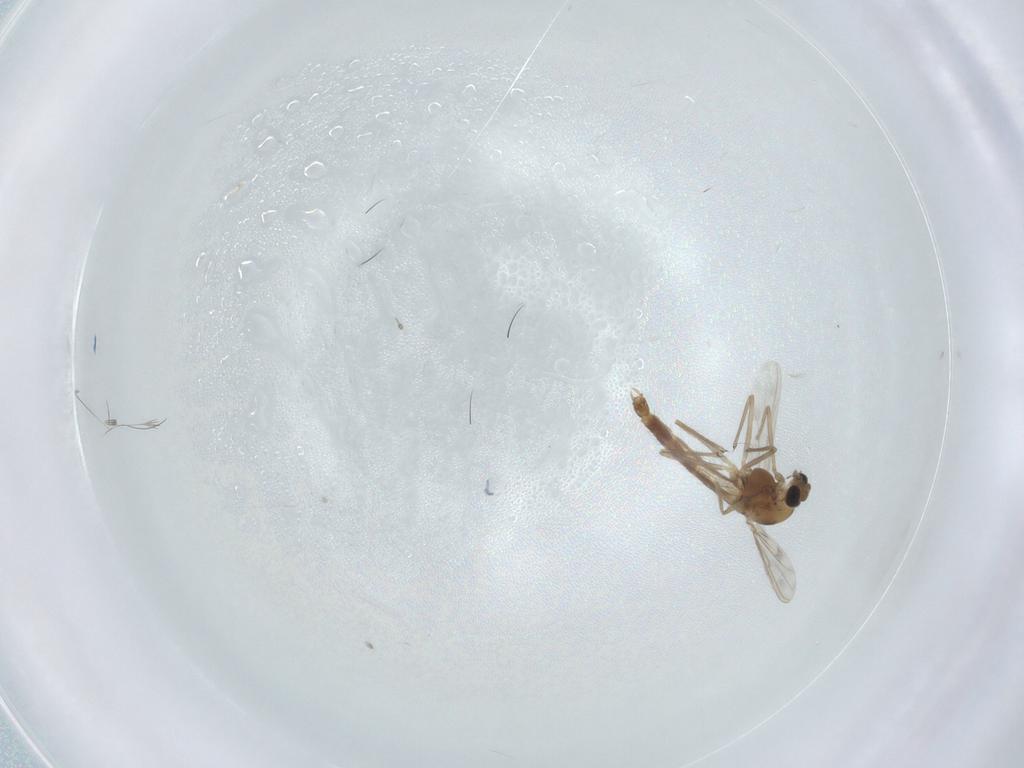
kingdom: Animalia
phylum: Arthropoda
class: Insecta
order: Diptera
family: Chironomidae
